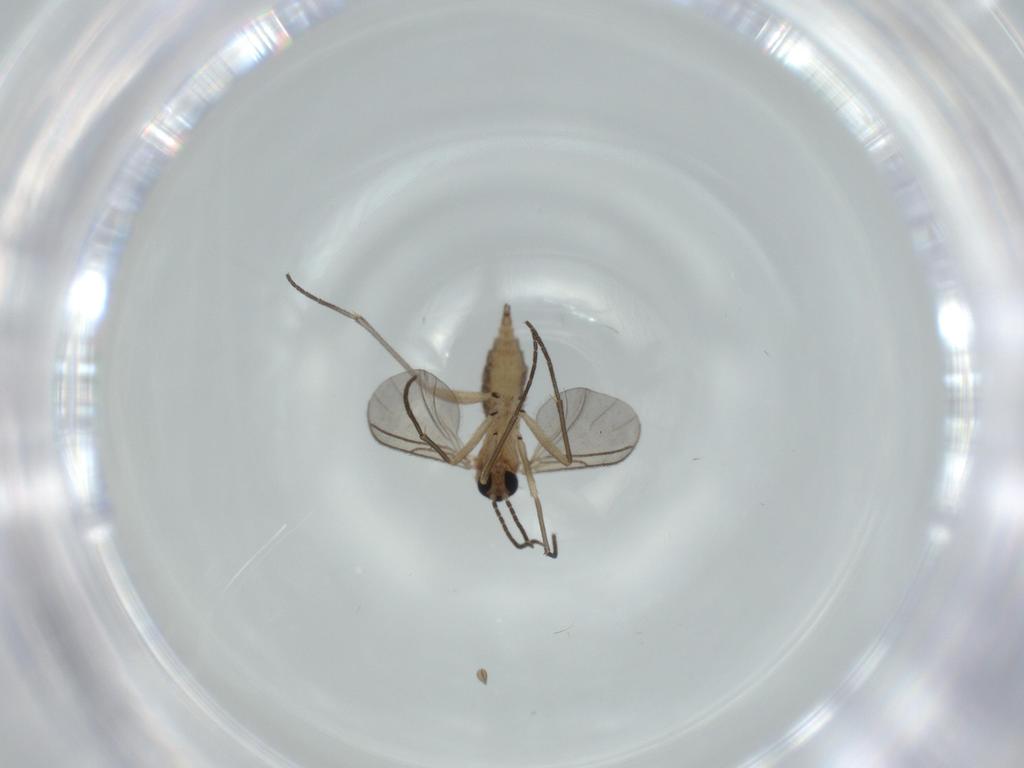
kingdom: Animalia
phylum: Arthropoda
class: Insecta
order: Diptera
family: Sciaridae
